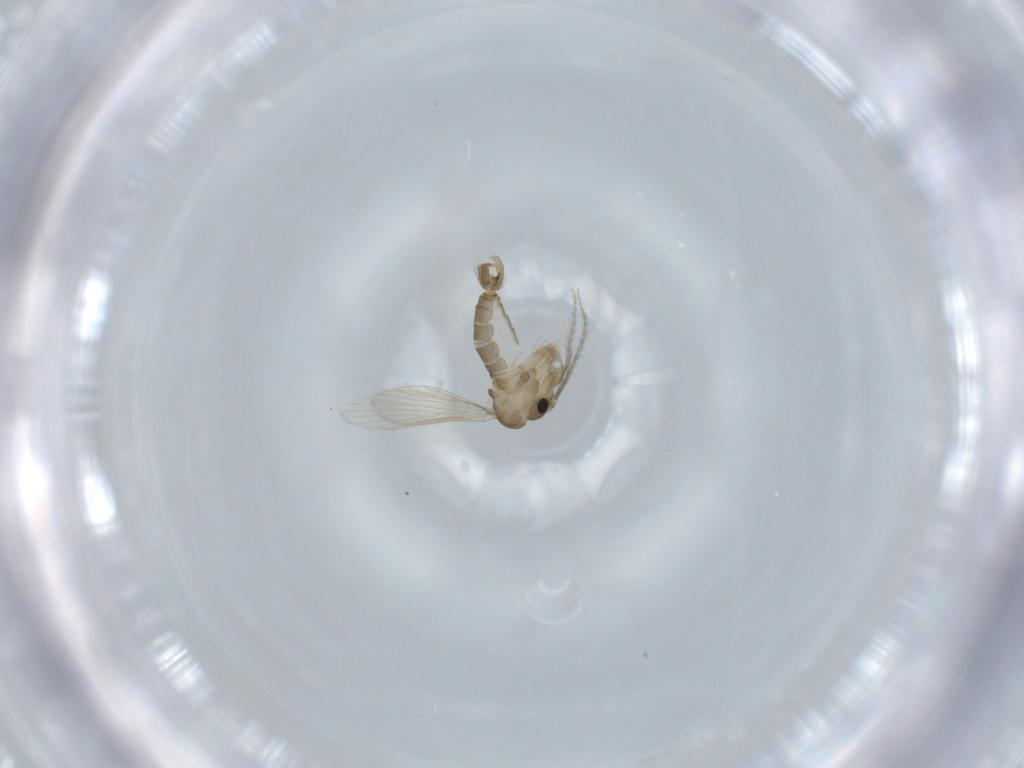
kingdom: Animalia
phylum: Arthropoda
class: Insecta
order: Diptera
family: Psychodidae
